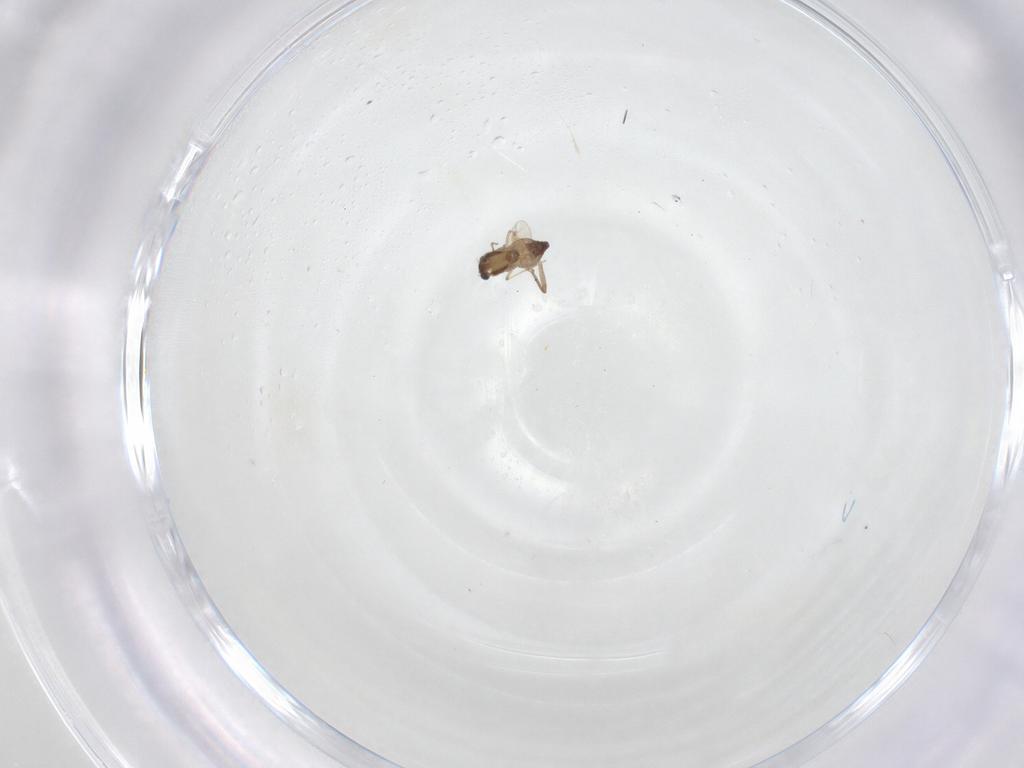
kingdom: Animalia
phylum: Arthropoda
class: Insecta
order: Diptera
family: Chironomidae
